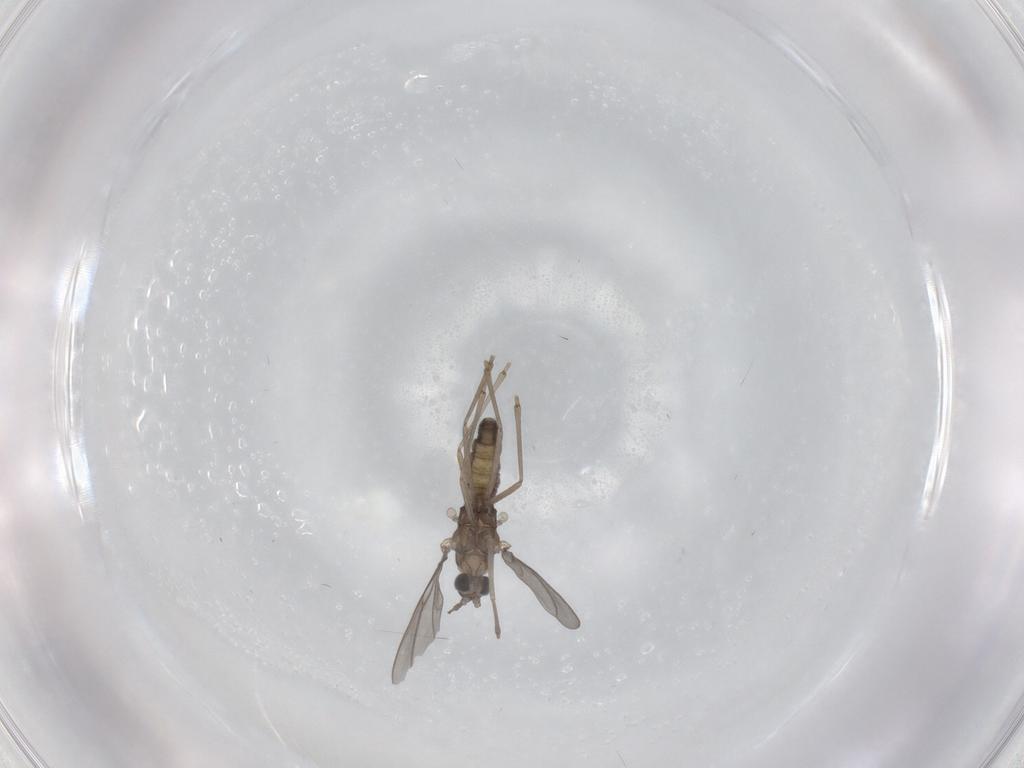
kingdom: Animalia
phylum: Arthropoda
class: Insecta
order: Diptera
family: Cecidomyiidae
